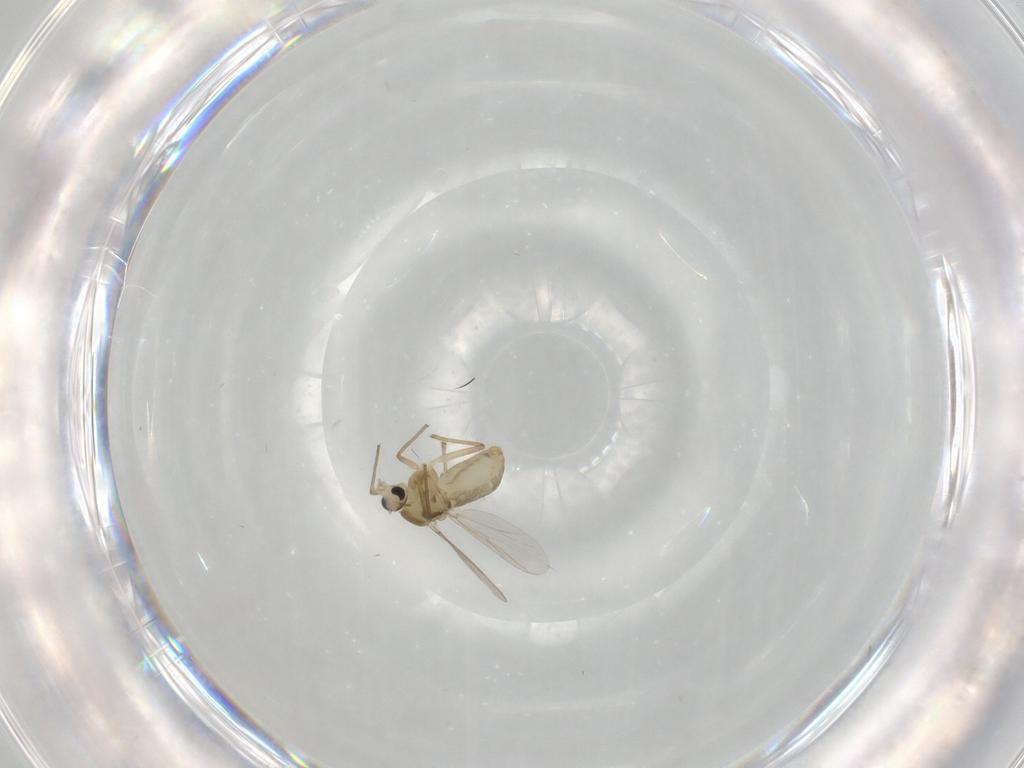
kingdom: Animalia
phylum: Arthropoda
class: Insecta
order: Diptera
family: Chironomidae
